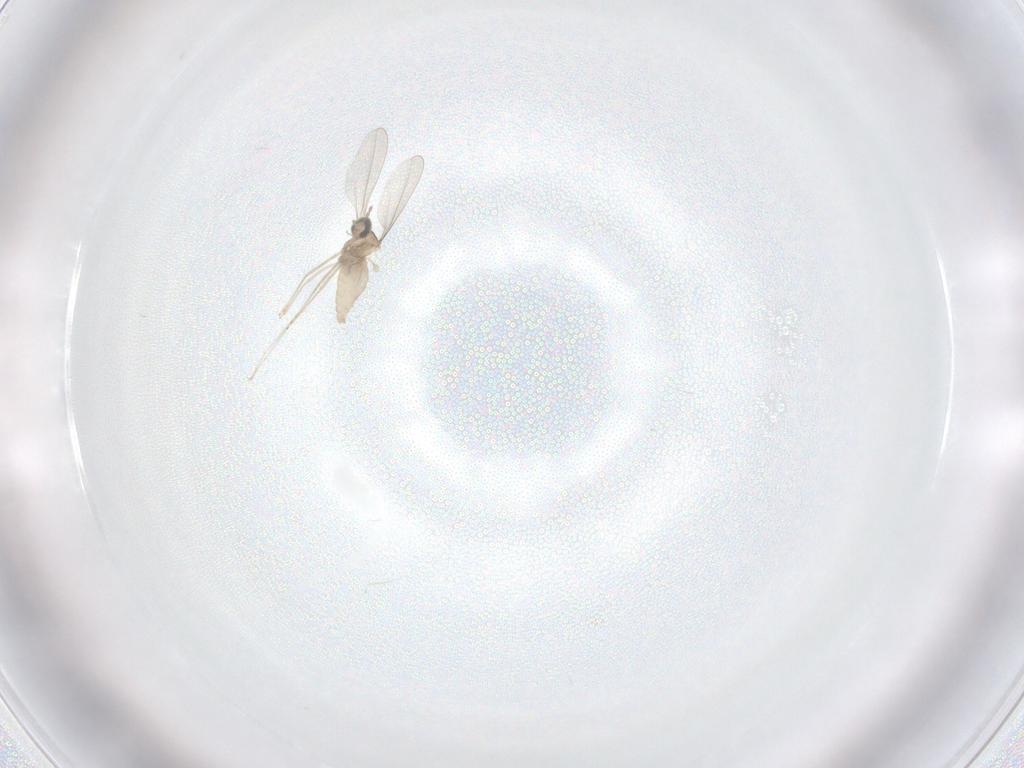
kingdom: Animalia
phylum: Arthropoda
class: Insecta
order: Diptera
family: Cecidomyiidae
